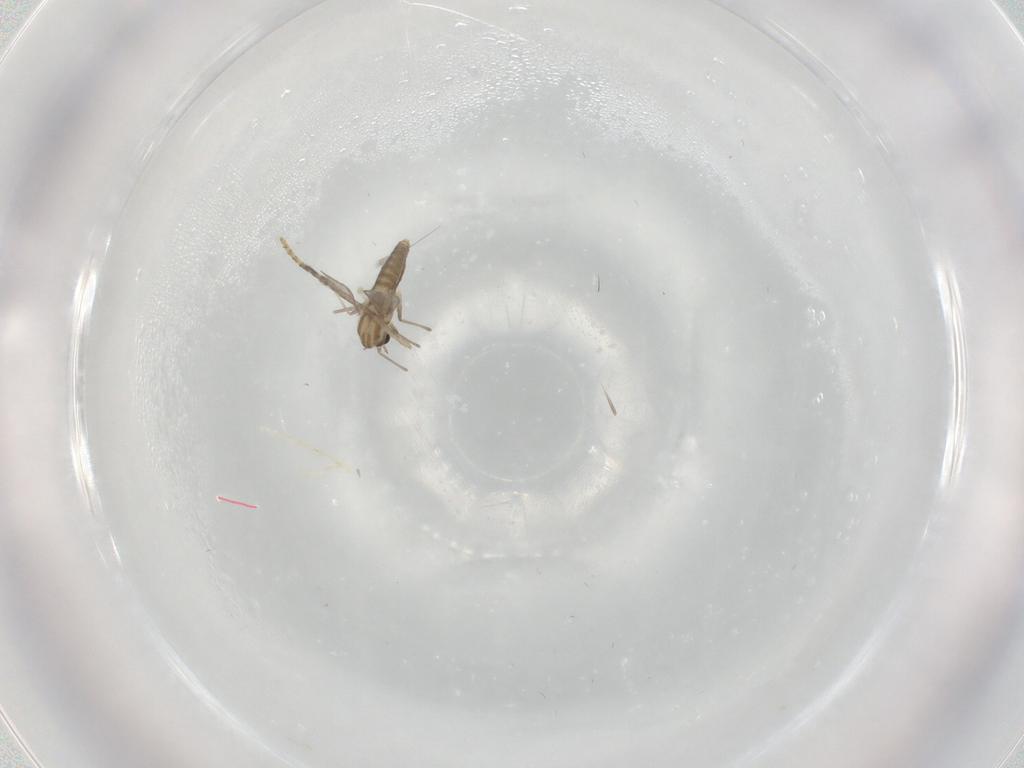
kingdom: Animalia
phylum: Arthropoda
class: Insecta
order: Diptera
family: Chironomidae
